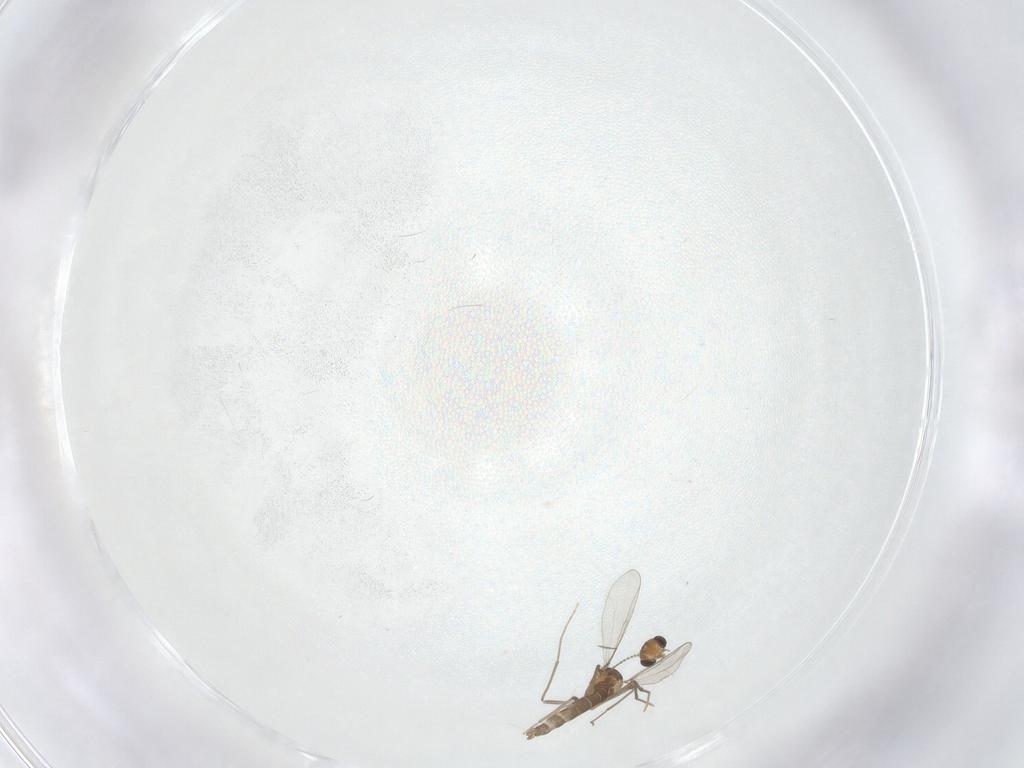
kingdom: Animalia
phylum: Arthropoda
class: Insecta
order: Diptera
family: Chironomidae
